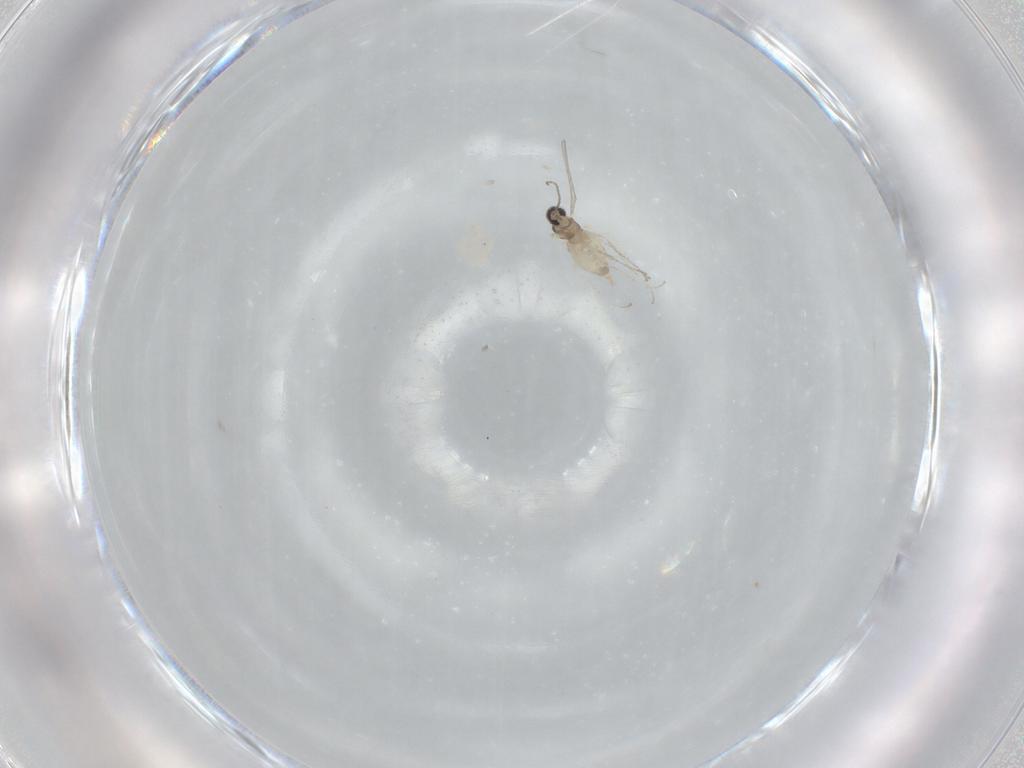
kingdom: Animalia
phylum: Arthropoda
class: Insecta
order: Diptera
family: Cecidomyiidae
